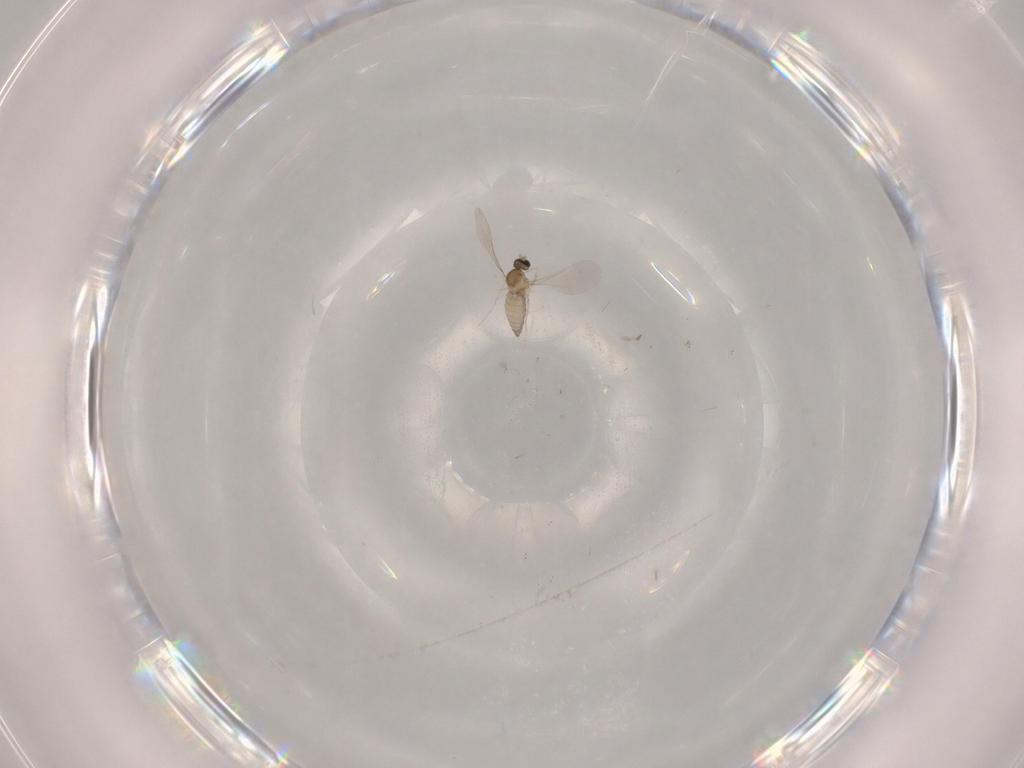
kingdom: Animalia
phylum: Arthropoda
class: Insecta
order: Diptera
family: Cecidomyiidae
